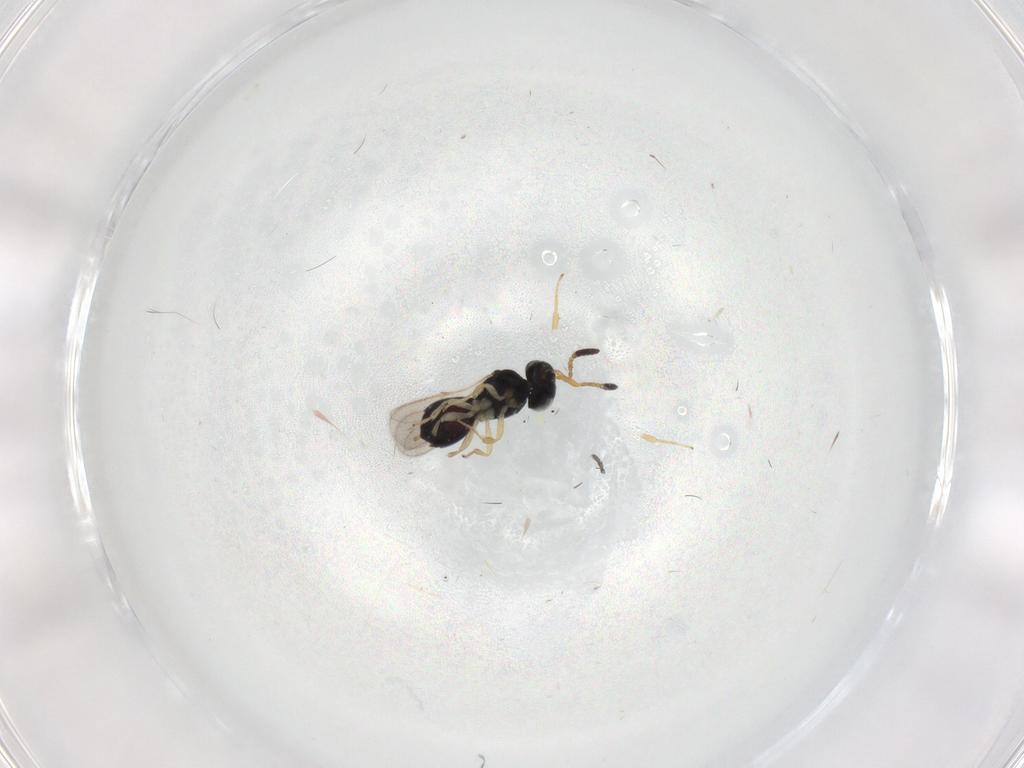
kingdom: Animalia
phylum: Arthropoda
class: Insecta
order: Hymenoptera
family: Scelionidae
